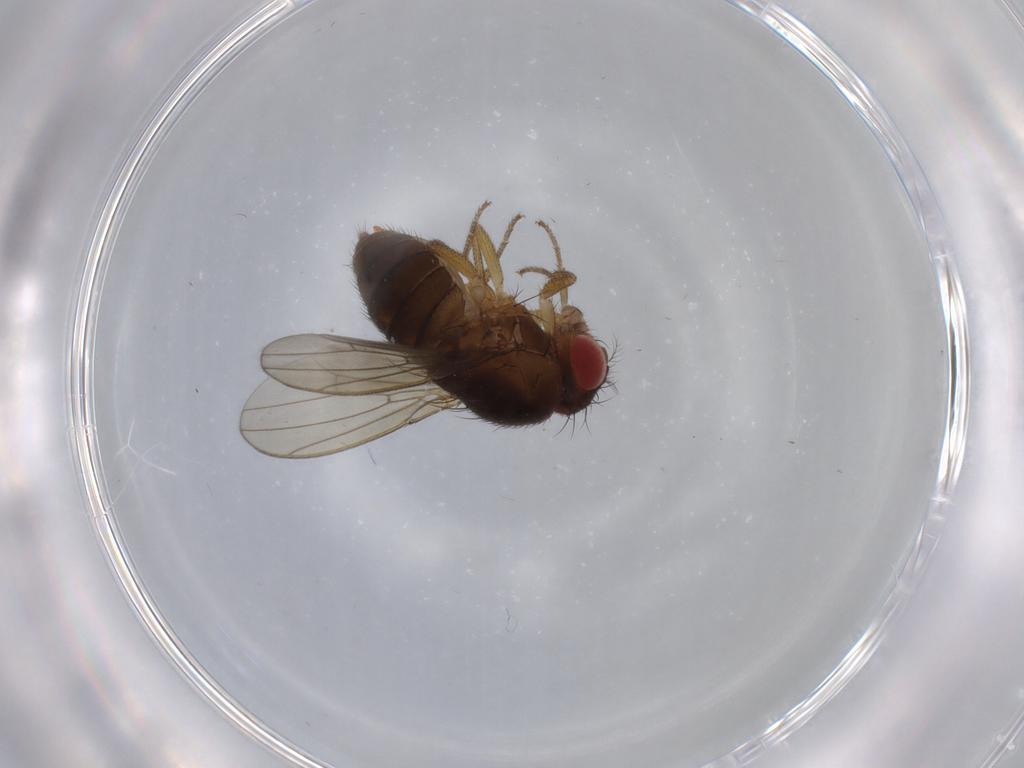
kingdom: Animalia
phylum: Arthropoda
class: Insecta
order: Diptera
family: Drosophilidae
